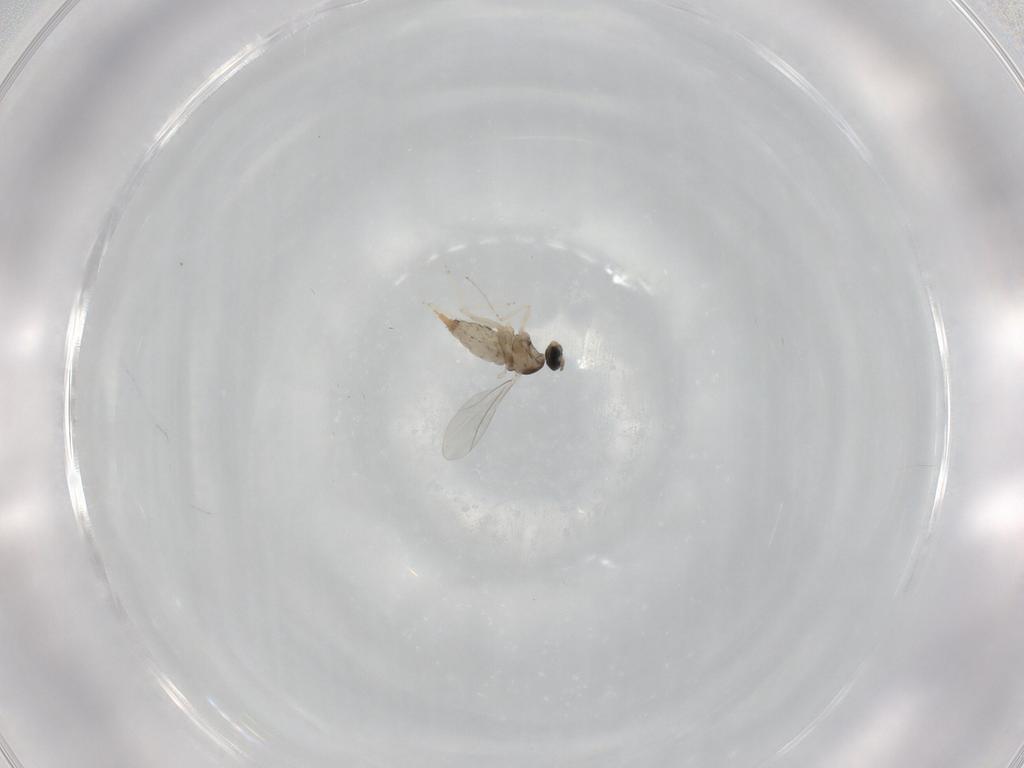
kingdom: Animalia
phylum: Arthropoda
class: Insecta
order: Diptera
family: Cecidomyiidae
